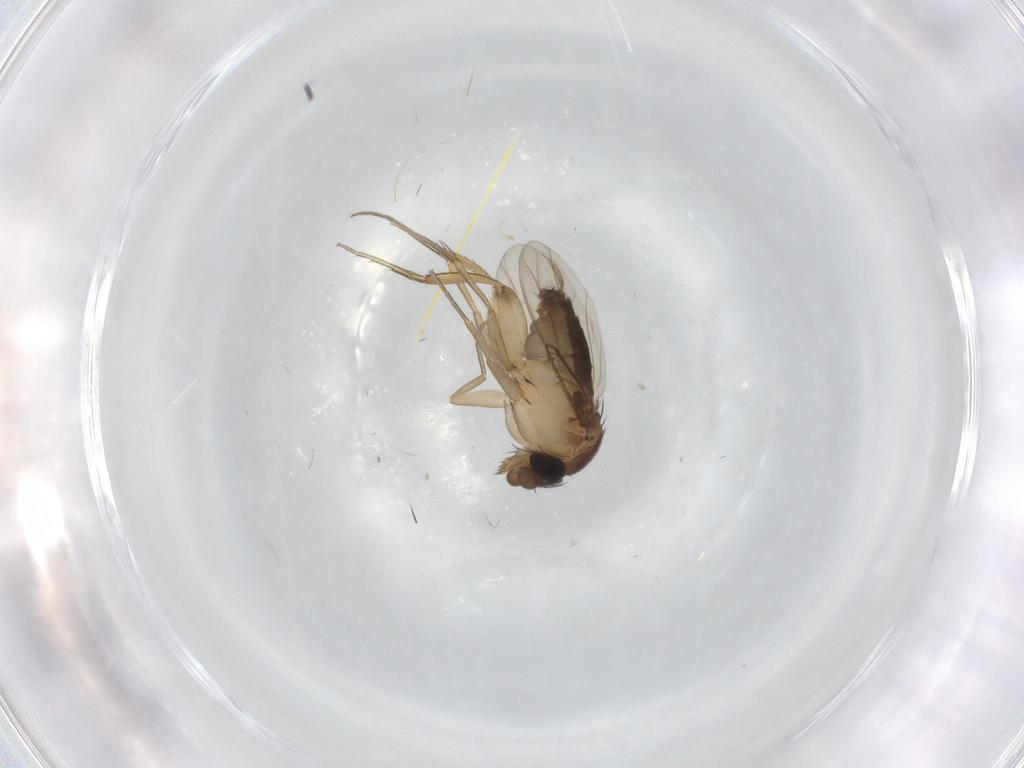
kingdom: Animalia
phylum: Arthropoda
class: Insecta
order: Diptera
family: Phoridae
